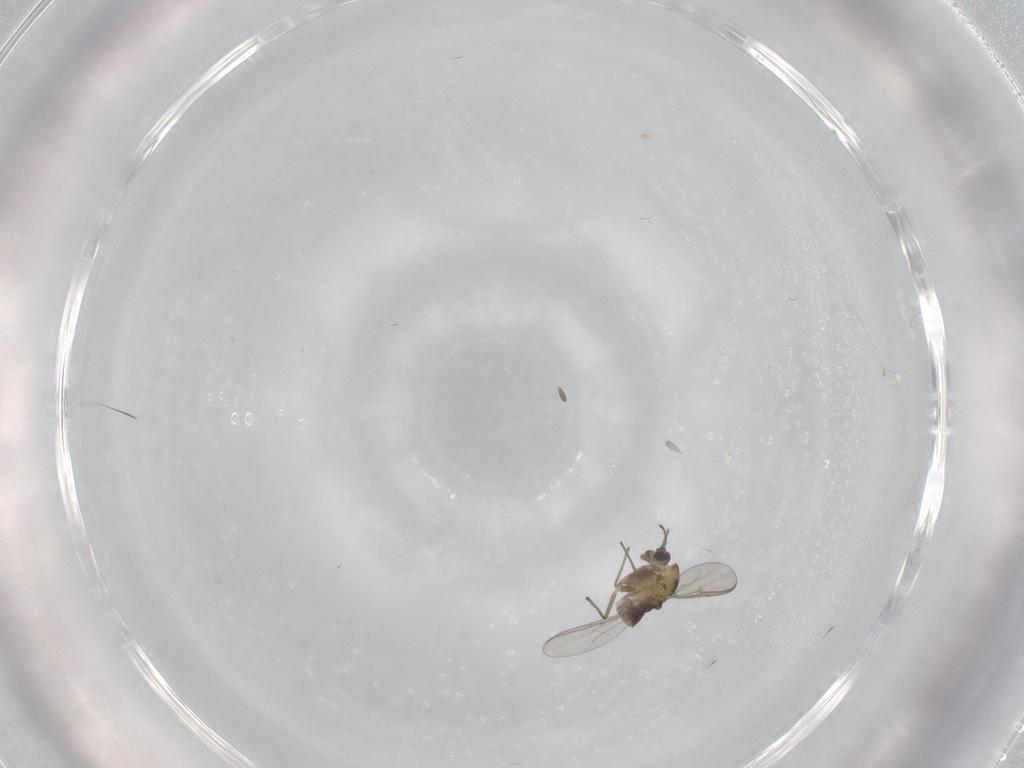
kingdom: Animalia
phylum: Arthropoda
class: Insecta
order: Diptera
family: Chironomidae
